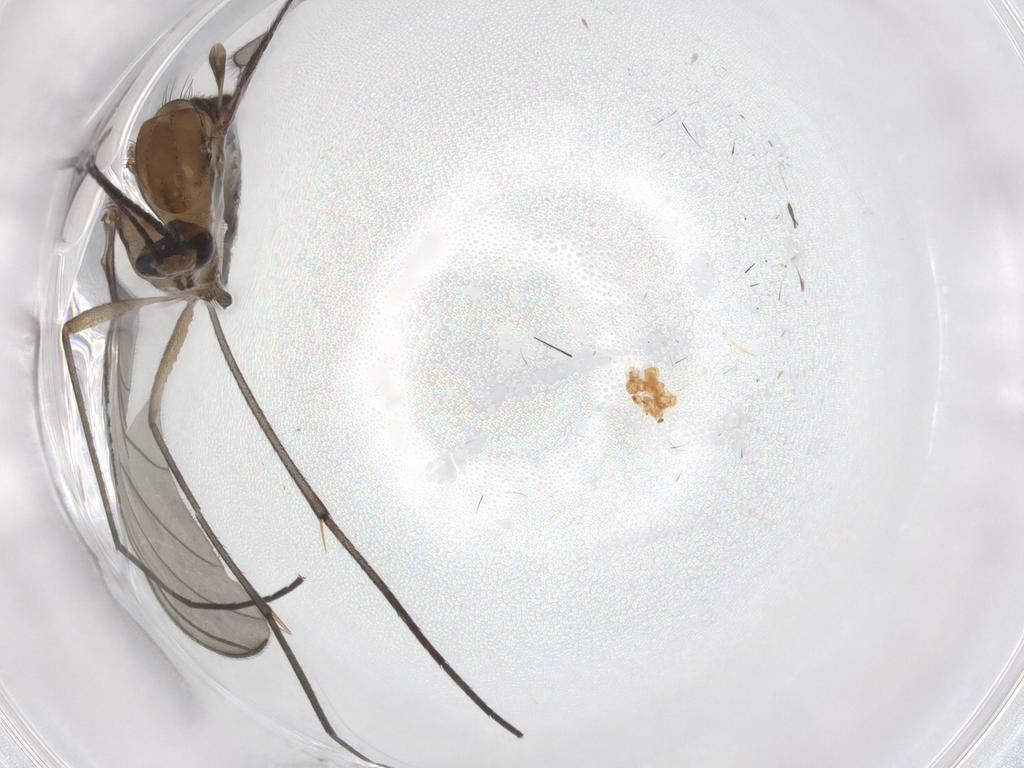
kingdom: Animalia
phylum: Arthropoda
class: Insecta
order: Diptera
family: Sciaridae
